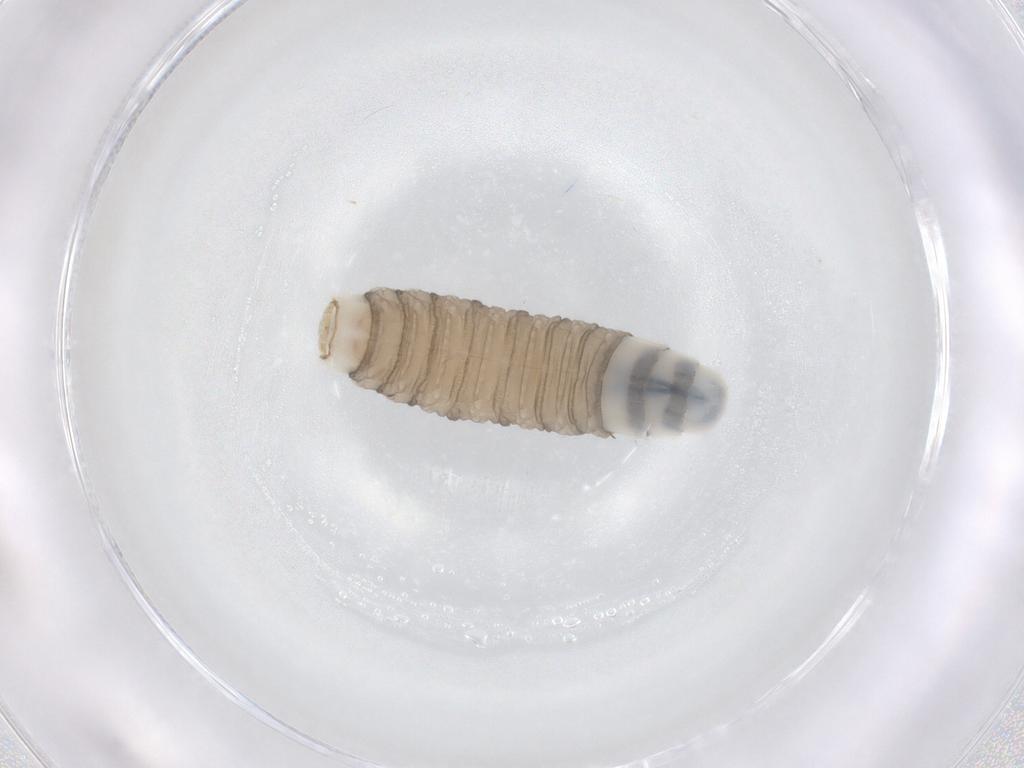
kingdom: Animalia
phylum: Arthropoda
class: Insecta
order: Diptera
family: Sarcophagidae
